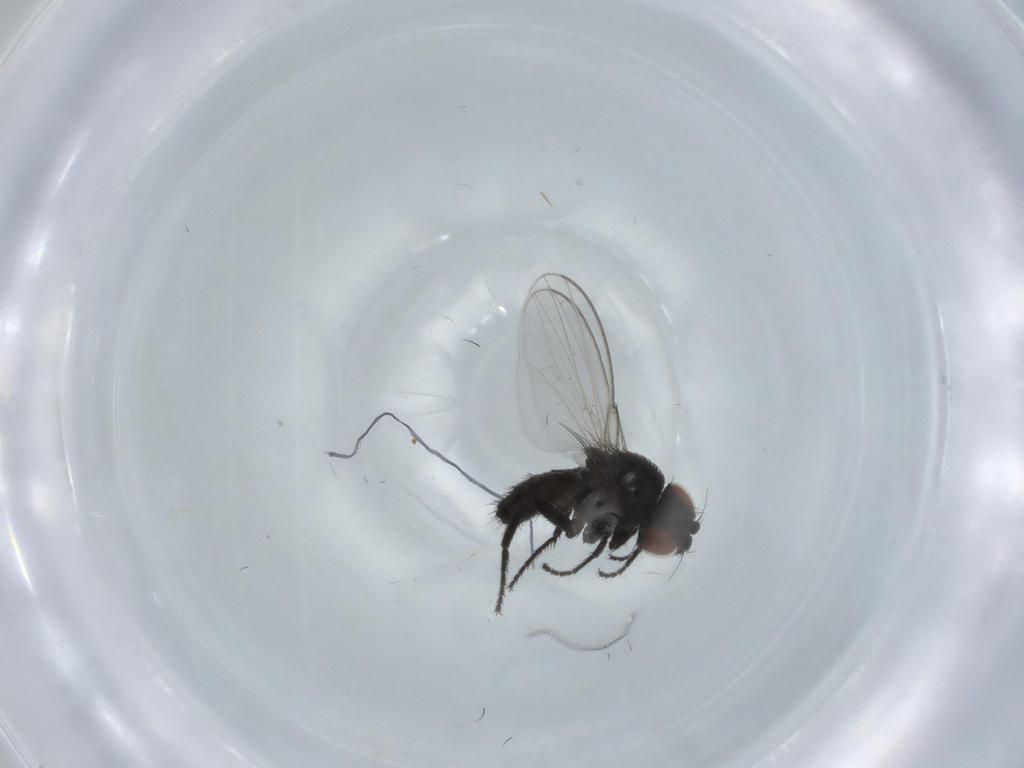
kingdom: Animalia
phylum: Arthropoda
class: Insecta
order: Diptera
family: Milichiidae
